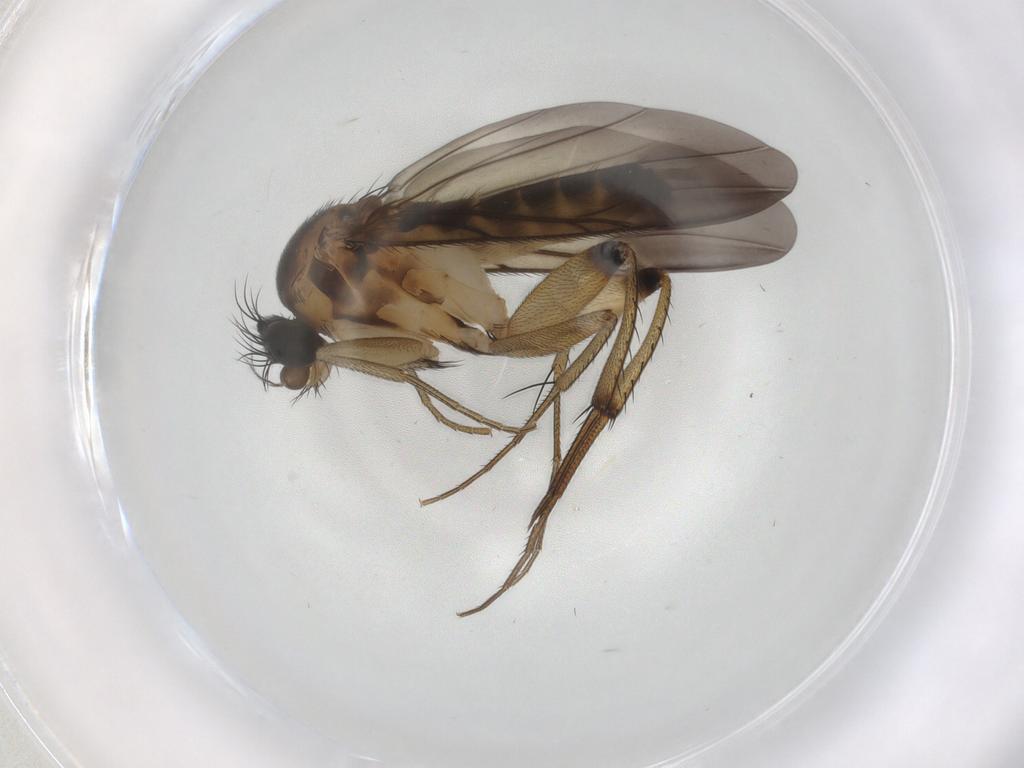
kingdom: Animalia
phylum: Arthropoda
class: Insecta
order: Diptera
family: Phoridae
